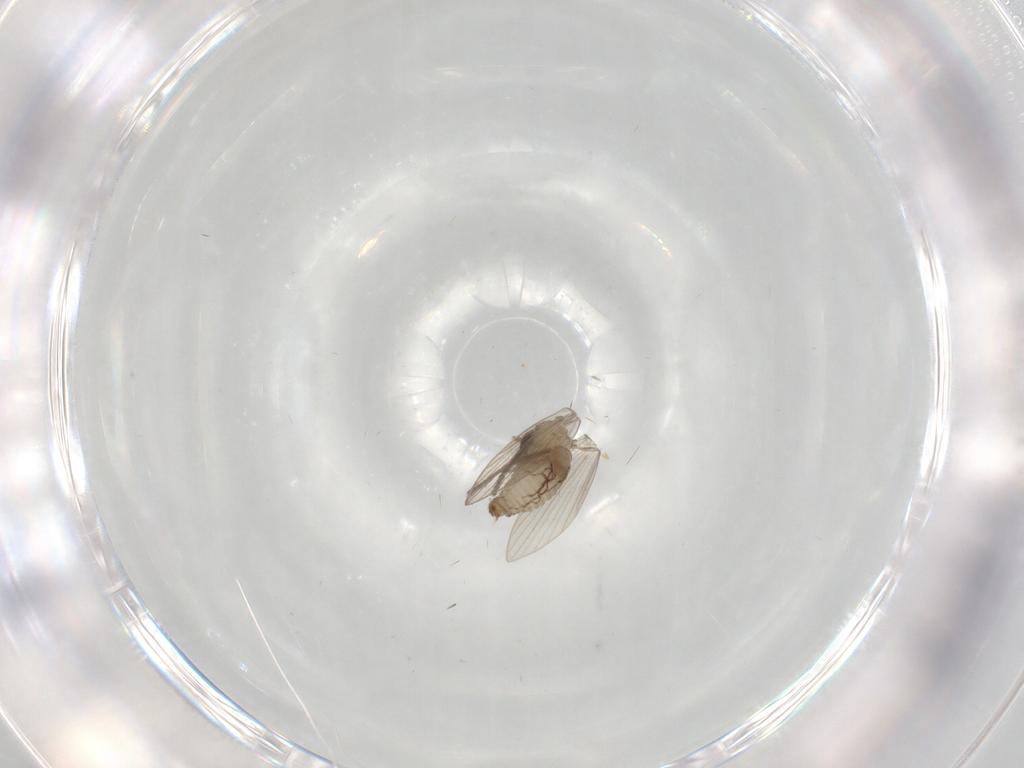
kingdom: Animalia
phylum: Arthropoda
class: Insecta
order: Diptera
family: Psychodidae
